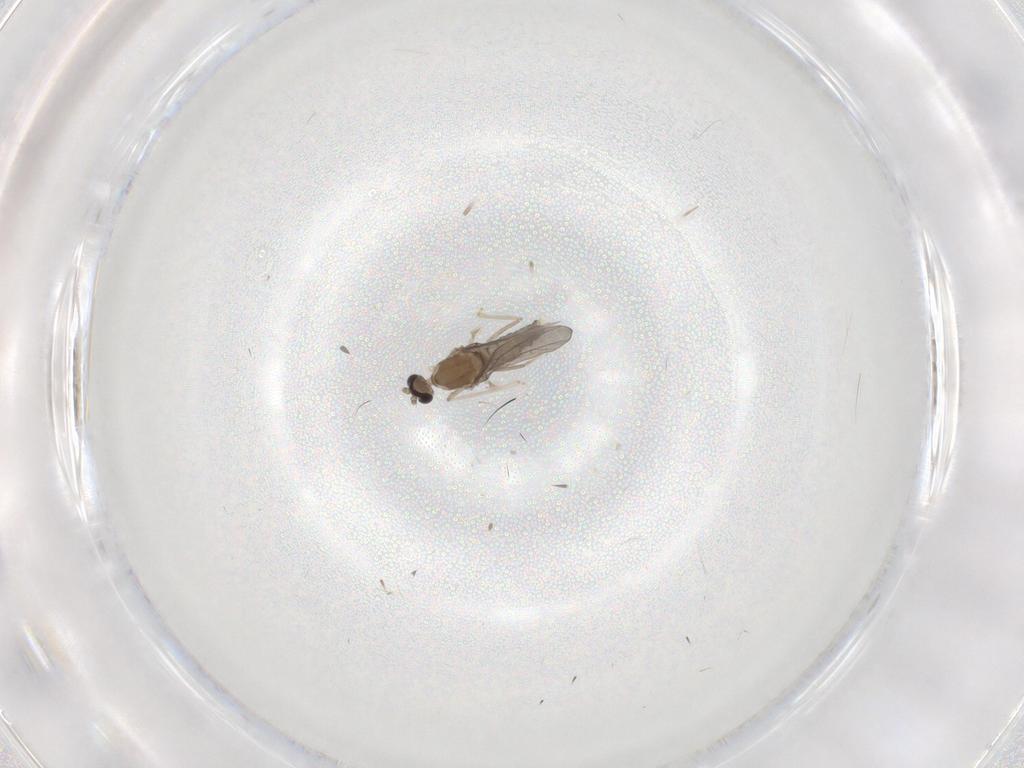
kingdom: Animalia
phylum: Arthropoda
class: Insecta
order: Diptera
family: Cecidomyiidae
